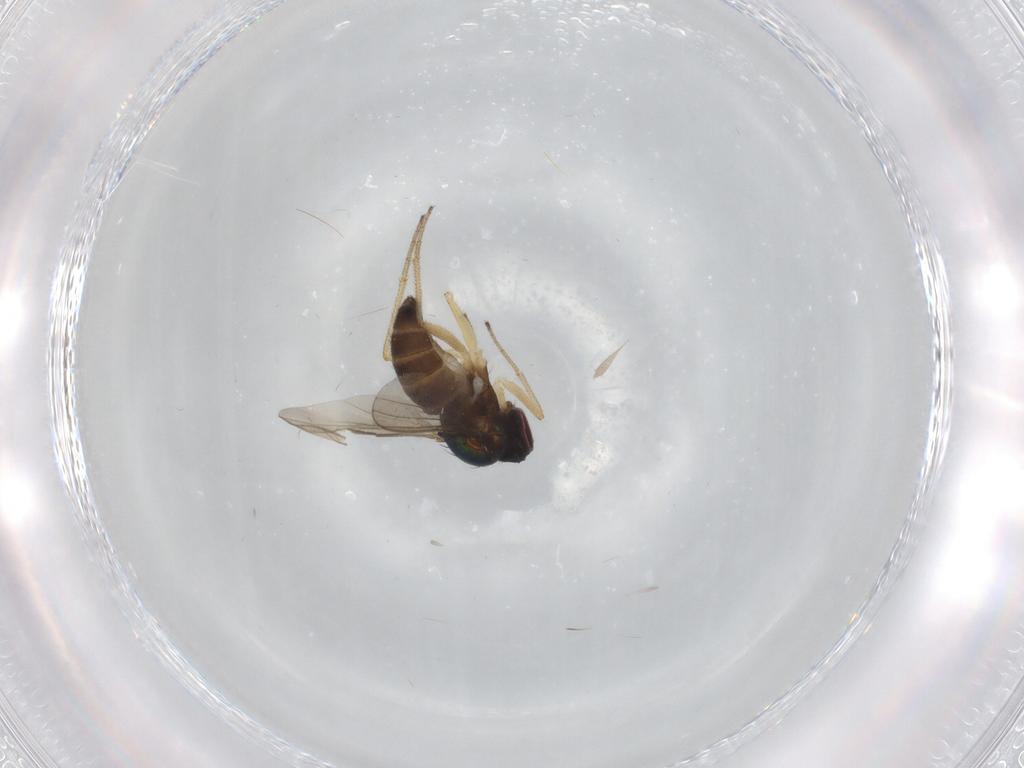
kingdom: Animalia
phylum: Arthropoda
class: Insecta
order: Diptera
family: Dolichopodidae
